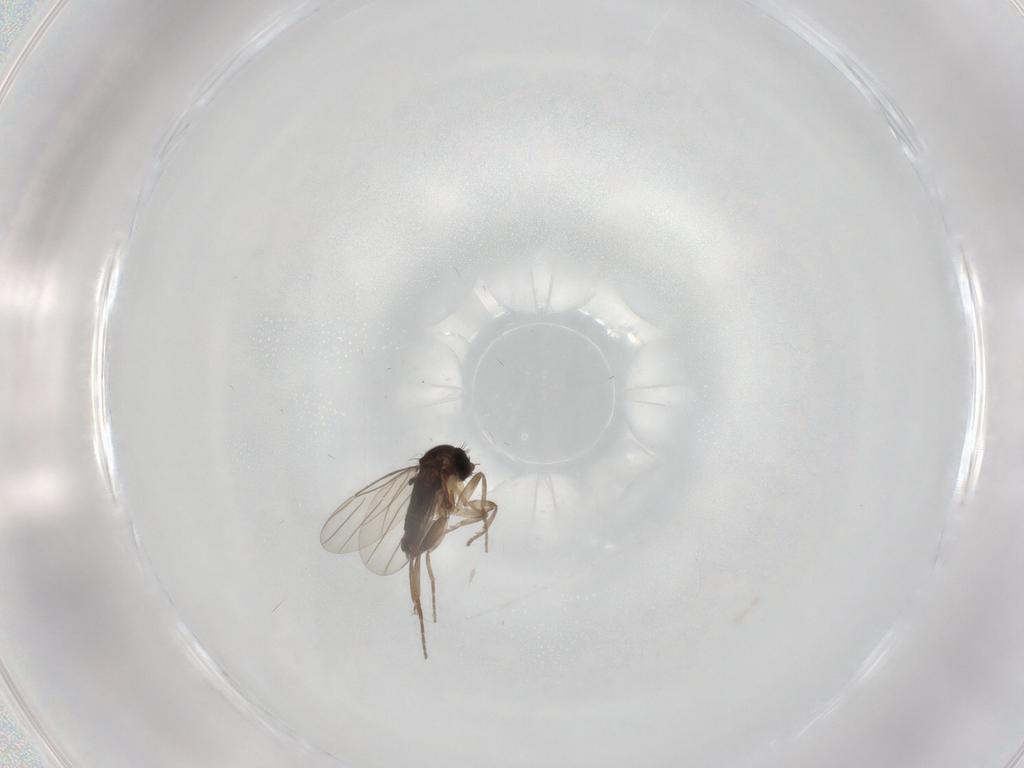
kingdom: Animalia
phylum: Arthropoda
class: Insecta
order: Diptera
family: Phoridae
